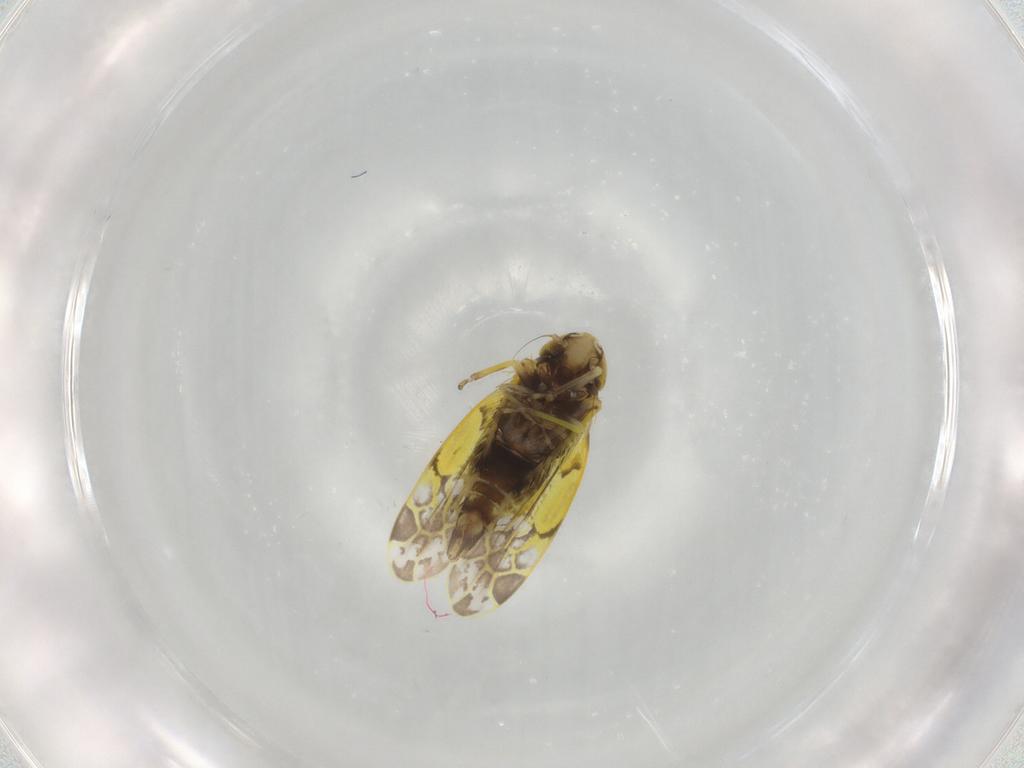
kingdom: Animalia
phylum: Arthropoda
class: Insecta
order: Hemiptera
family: Cicadellidae
